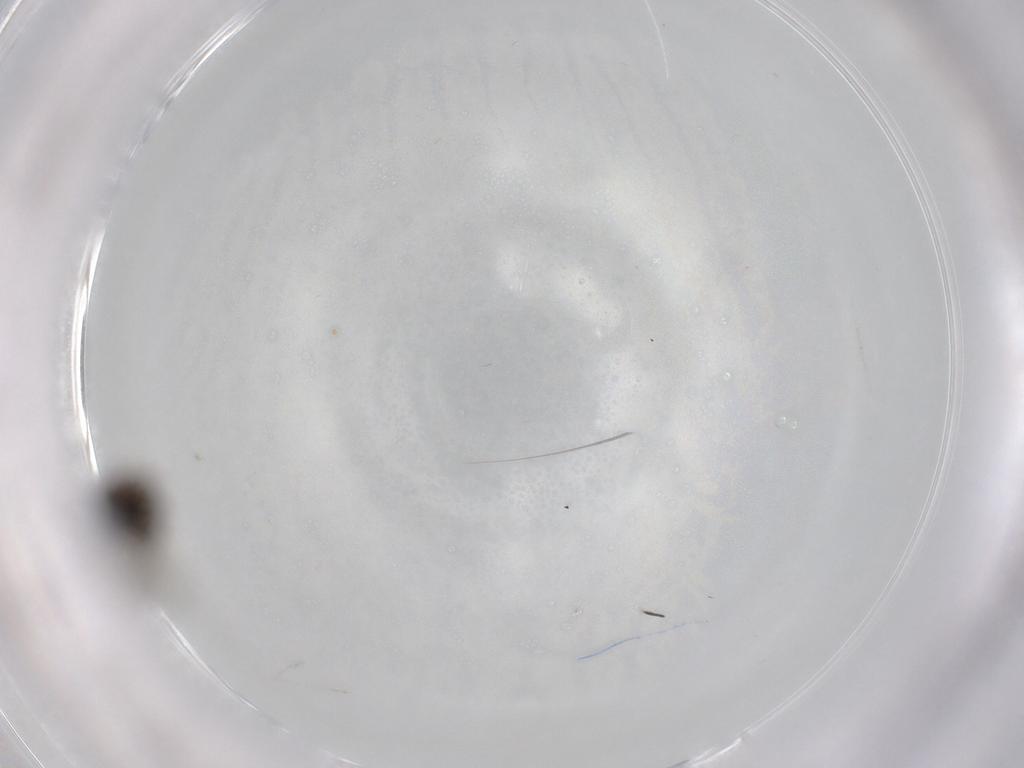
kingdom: Animalia
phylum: Arthropoda
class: Insecta
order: Diptera
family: Phoridae
